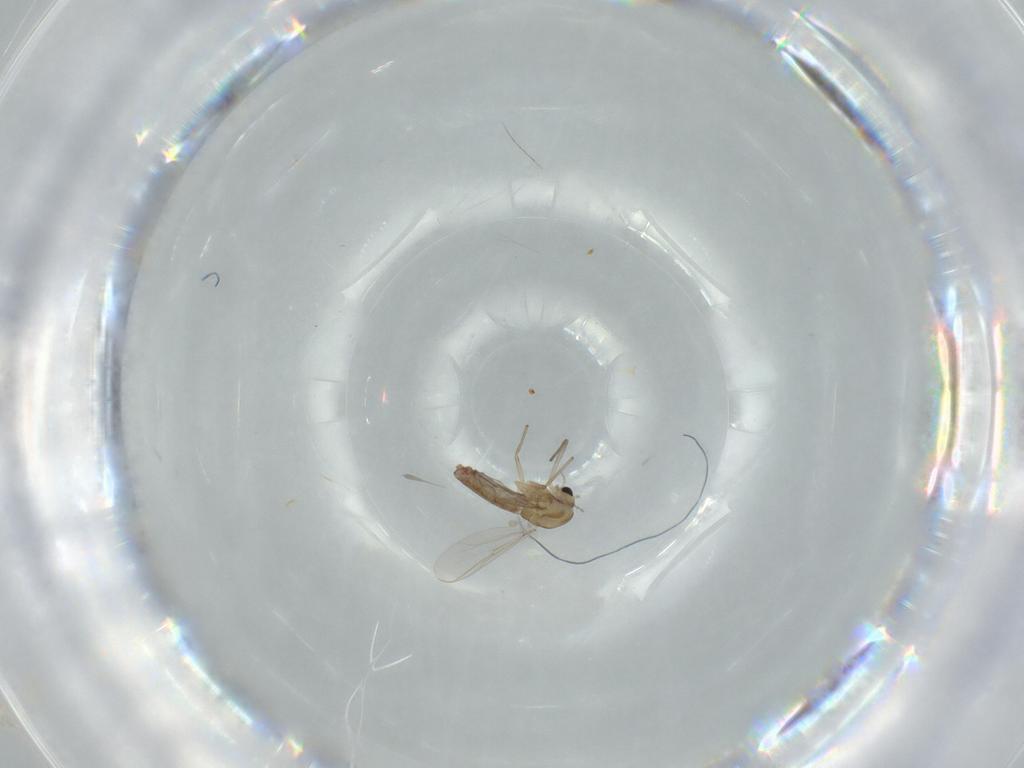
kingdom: Animalia
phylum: Arthropoda
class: Insecta
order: Diptera
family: Chironomidae
